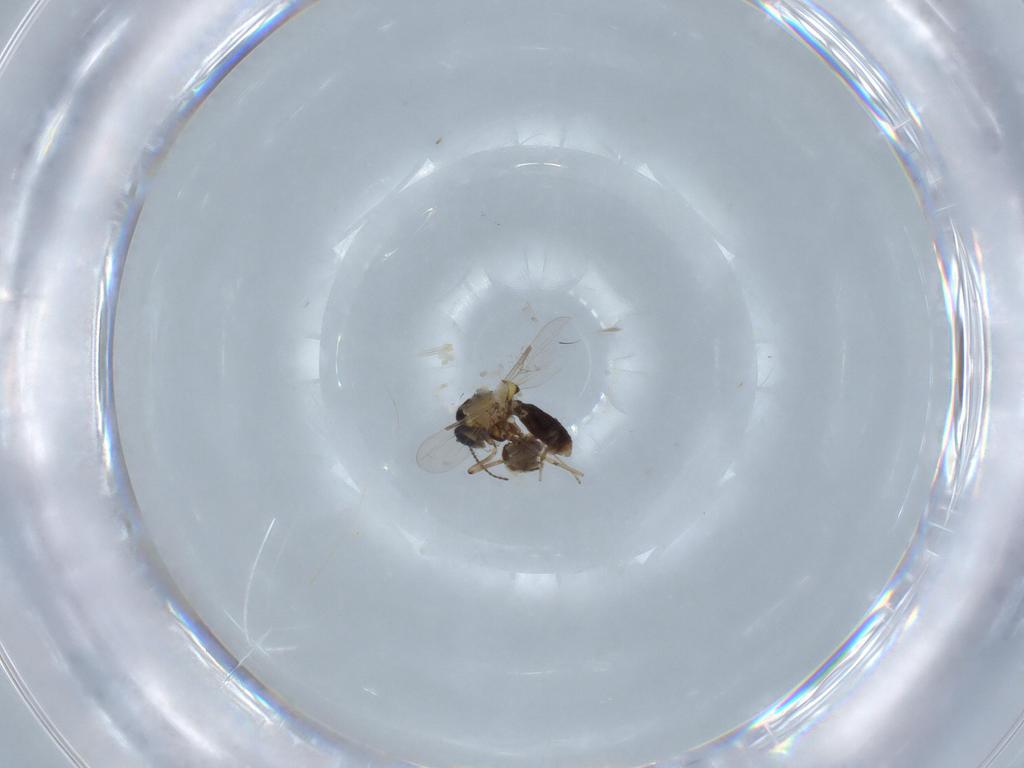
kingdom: Animalia
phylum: Arthropoda
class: Insecta
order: Diptera
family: Ceratopogonidae
